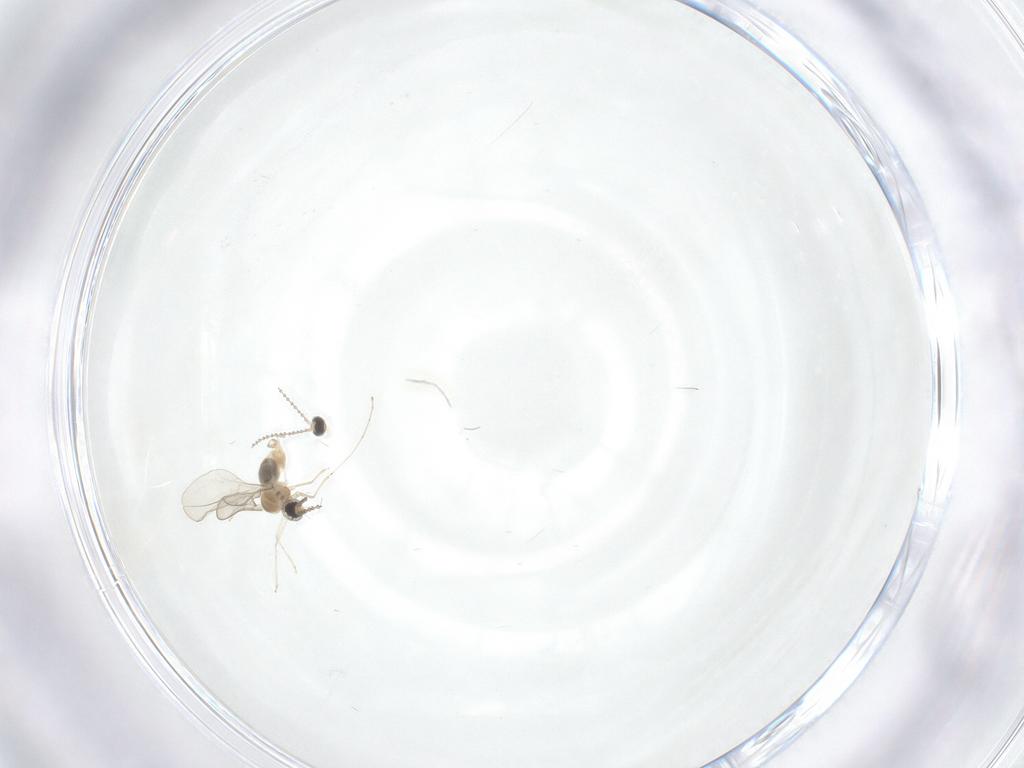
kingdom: Animalia
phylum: Arthropoda
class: Insecta
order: Diptera
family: Cecidomyiidae
